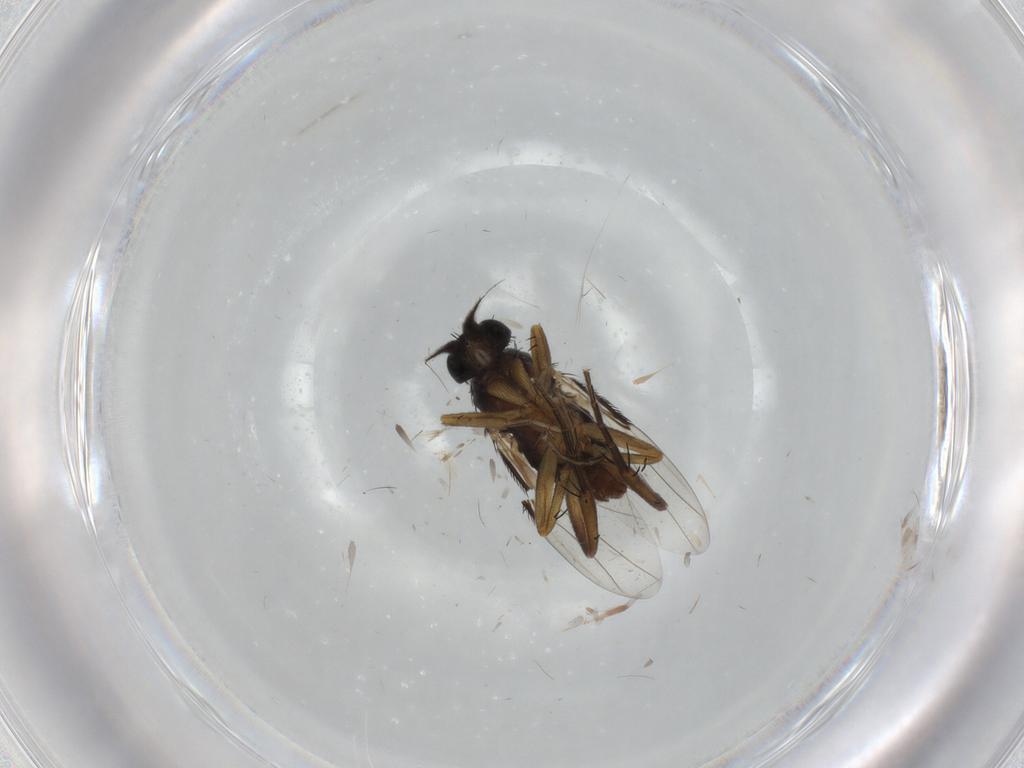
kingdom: Animalia
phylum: Arthropoda
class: Insecta
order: Diptera
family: Phoridae
